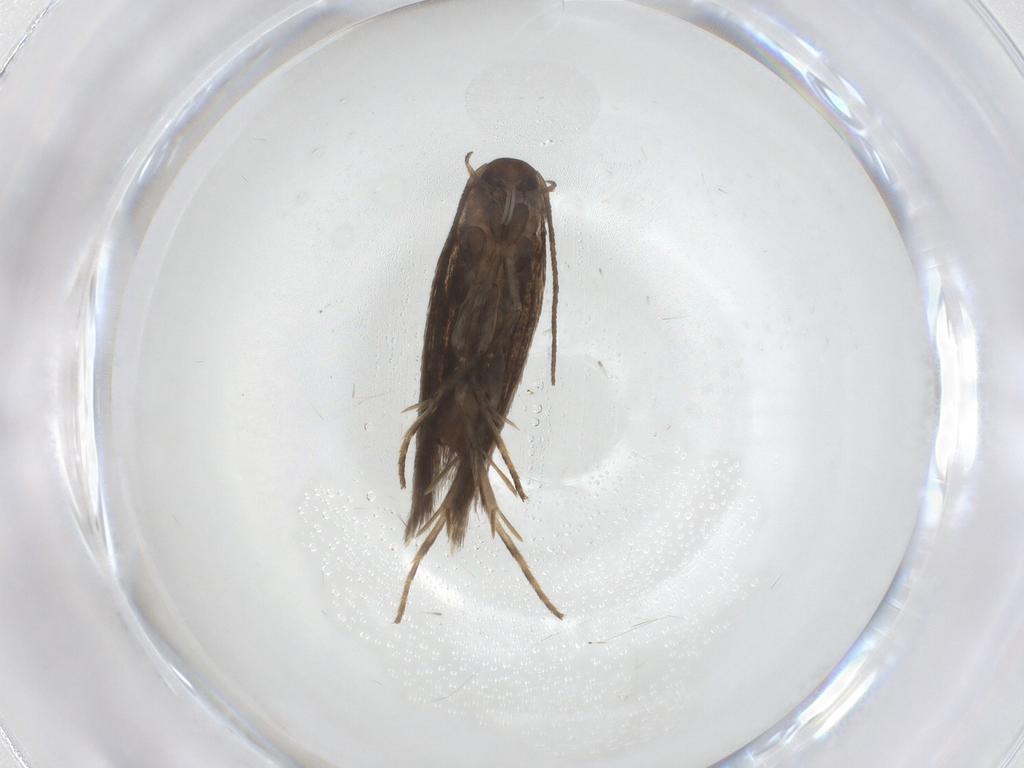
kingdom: Animalia
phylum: Arthropoda
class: Insecta
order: Lepidoptera
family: Elachistidae
